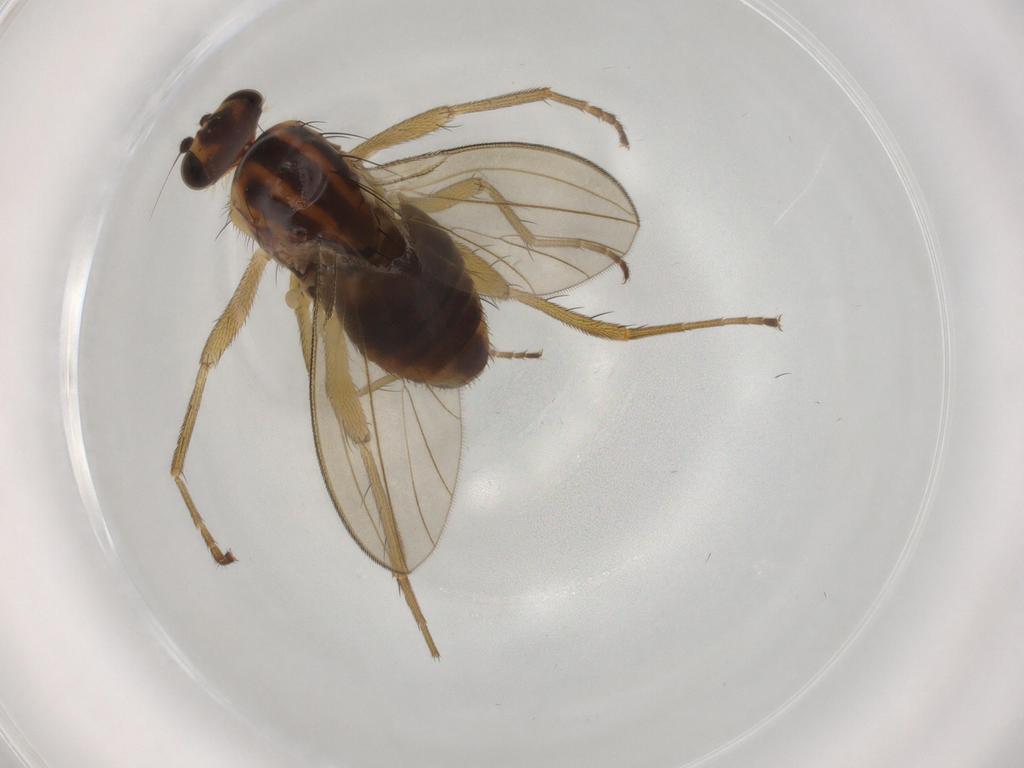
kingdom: Animalia
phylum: Arthropoda
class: Insecta
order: Diptera
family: Lonchopteridae
